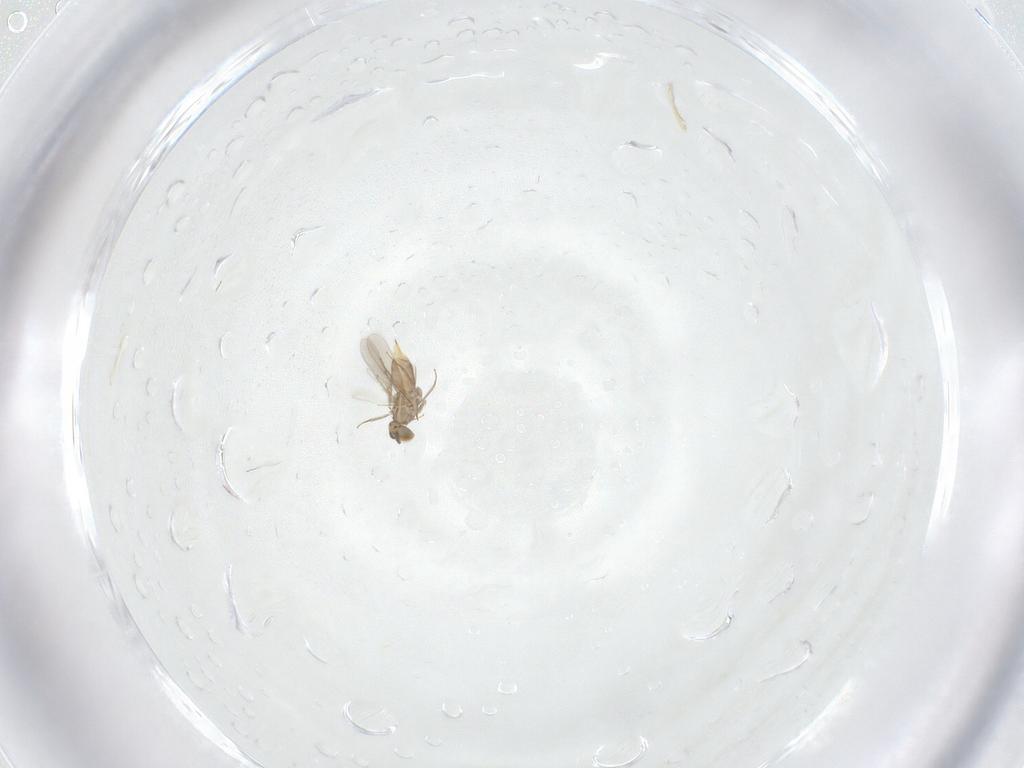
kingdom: Animalia
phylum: Arthropoda
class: Insecta
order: Hymenoptera
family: Aphelinidae
